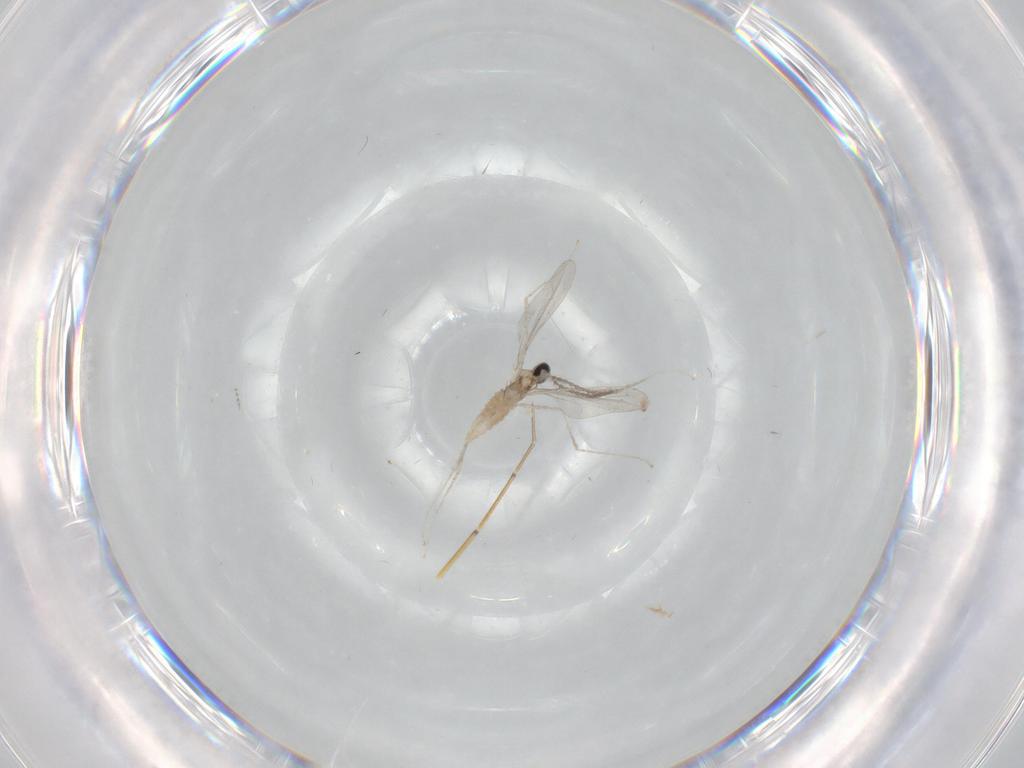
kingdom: Animalia
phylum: Arthropoda
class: Insecta
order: Diptera
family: Cecidomyiidae
